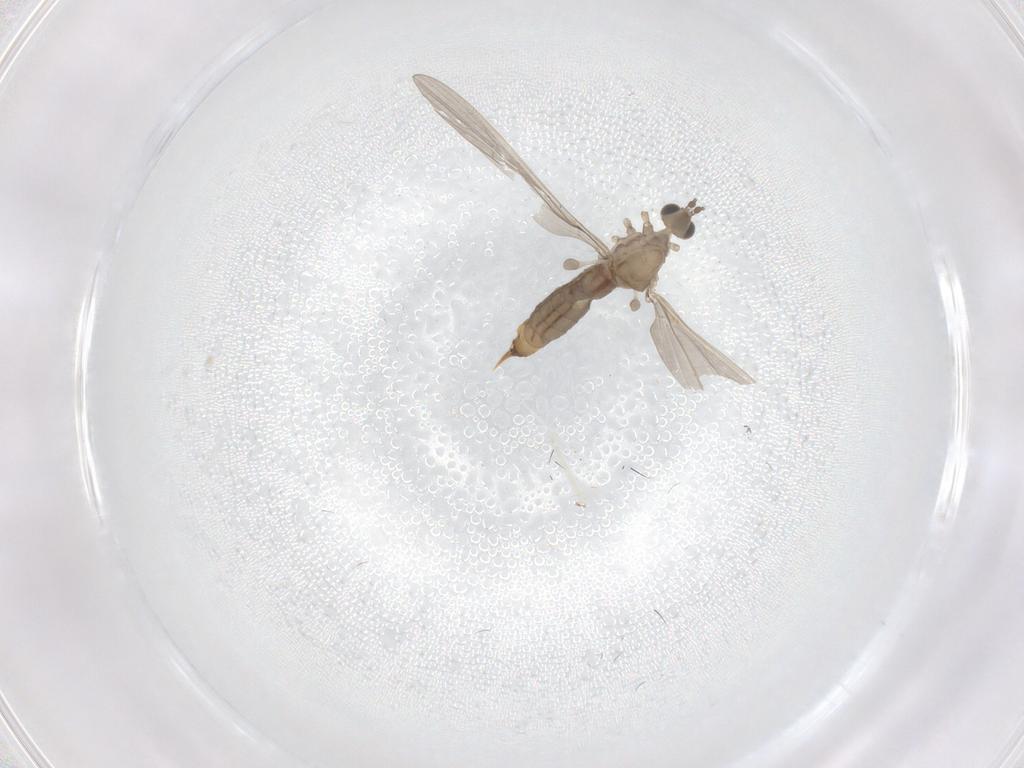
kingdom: Animalia
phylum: Arthropoda
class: Insecta
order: Diptera
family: Limoniidae
